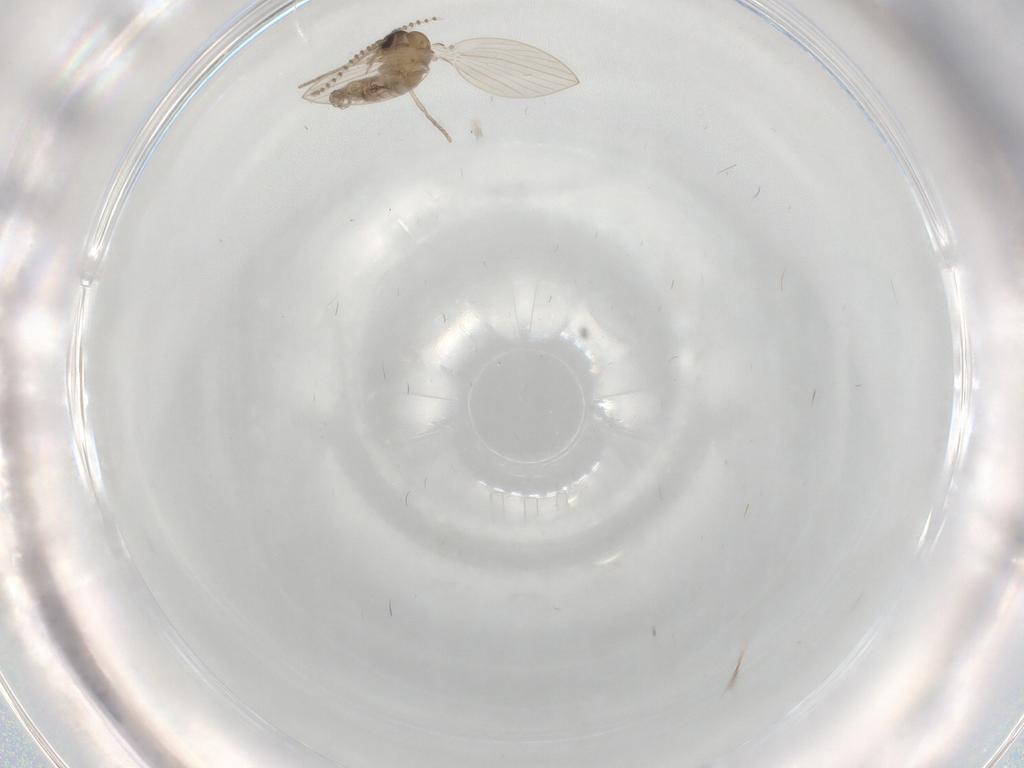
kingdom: Animalia
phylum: Arthropoda
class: Insecta
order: Diptera
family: Psychodidae
